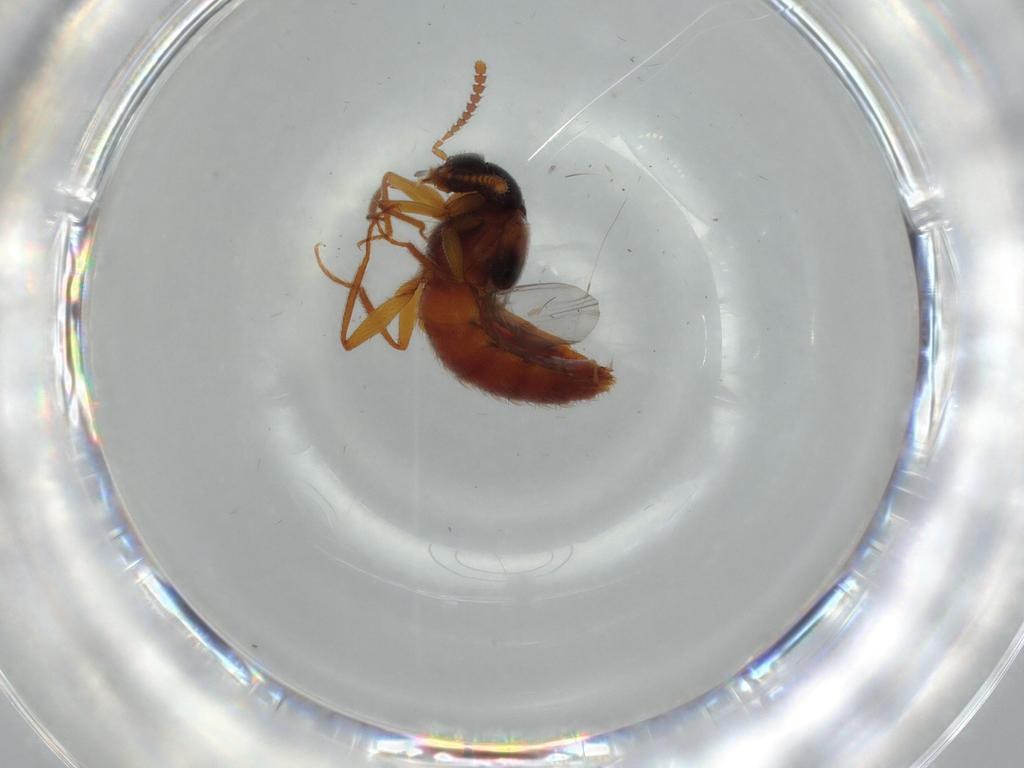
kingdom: Animalia
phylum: Arthropoda
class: Insecta
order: Coleoptera
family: Staphylinidae
